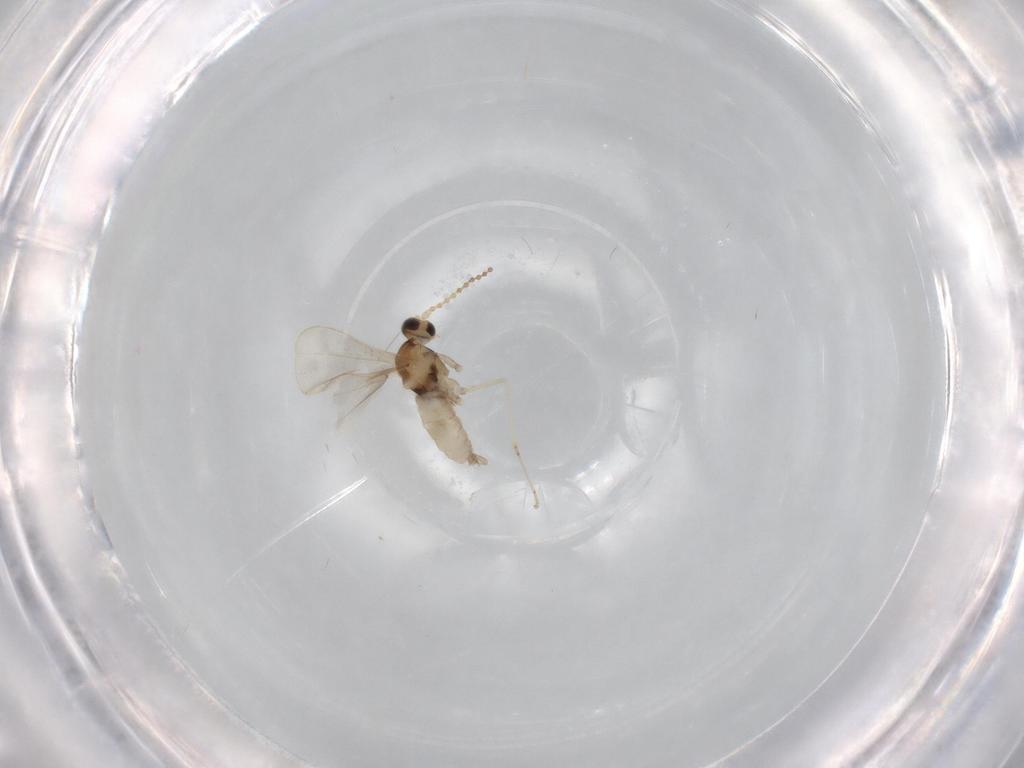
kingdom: Animalia
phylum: Arthropoda
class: Insecta
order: Diptera
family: Cecidomyiidae
